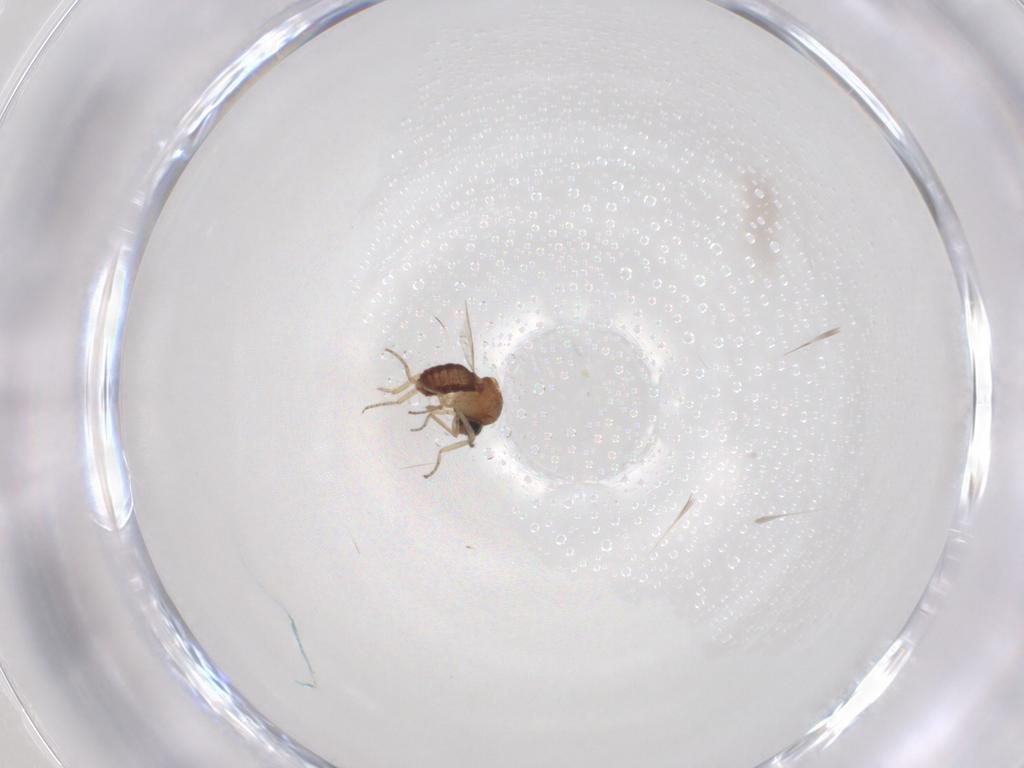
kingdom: Animalia
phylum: Arthropoda
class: Insecta
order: Diptera
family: Ceratopogonidae
